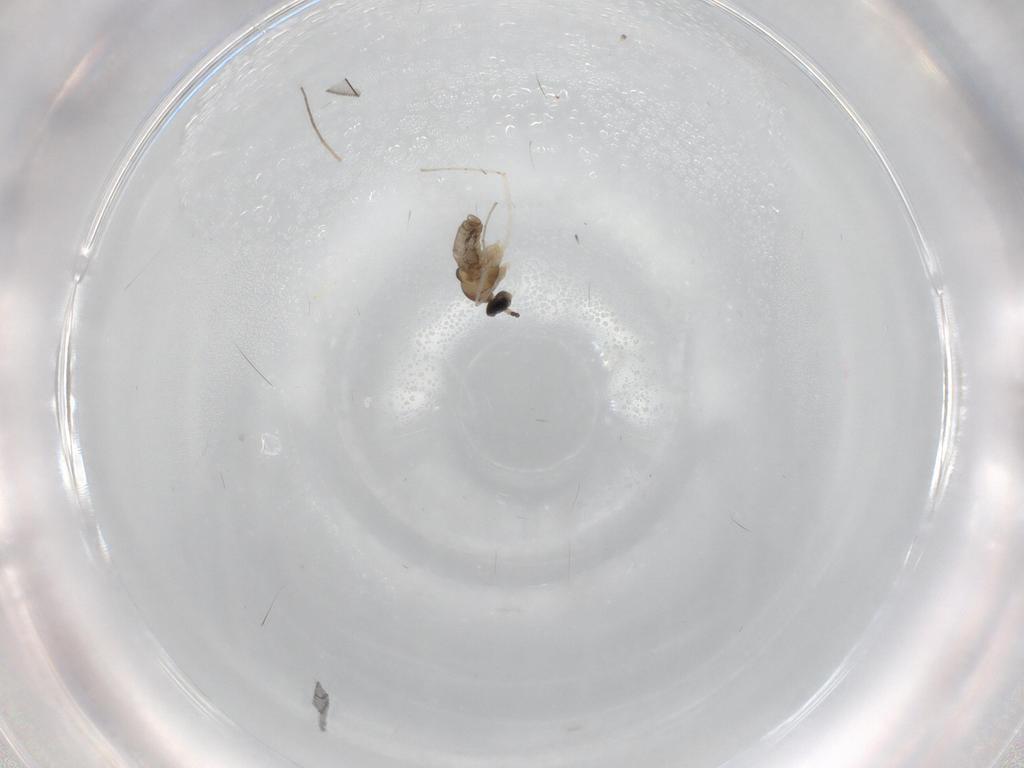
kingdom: Animalia
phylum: Arthropoda
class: Insecta
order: Diptera
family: Cecidomyiidae
